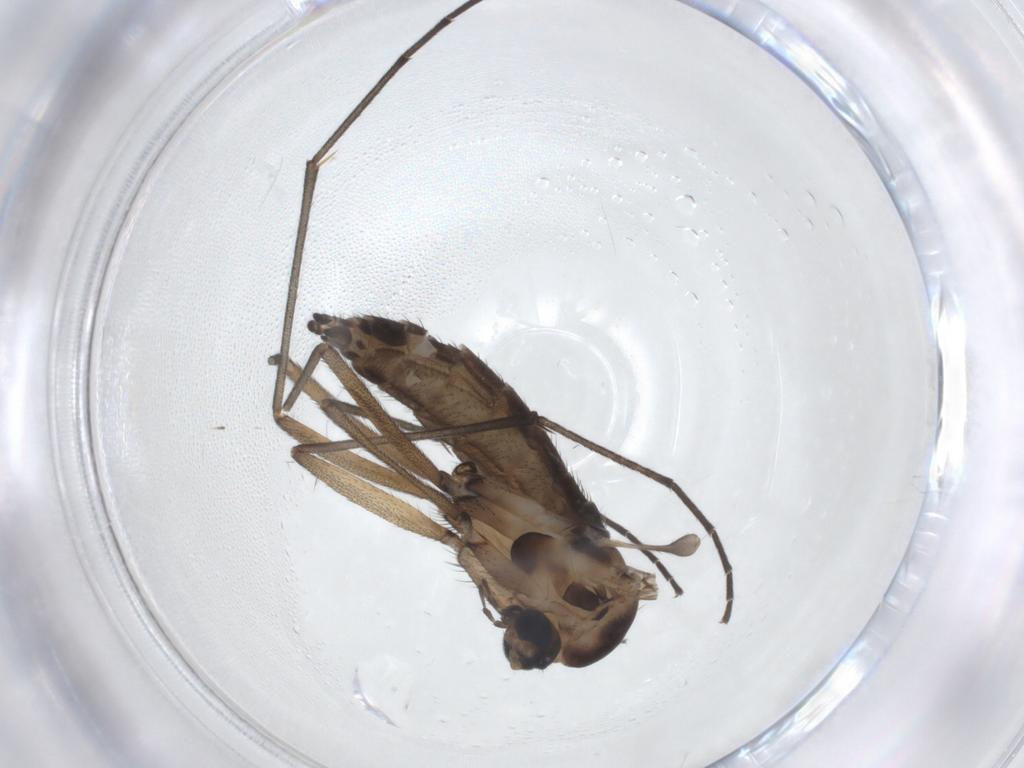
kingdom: Animalia
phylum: Arthropoda
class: Insecta
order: Diptera
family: Sciaridae
